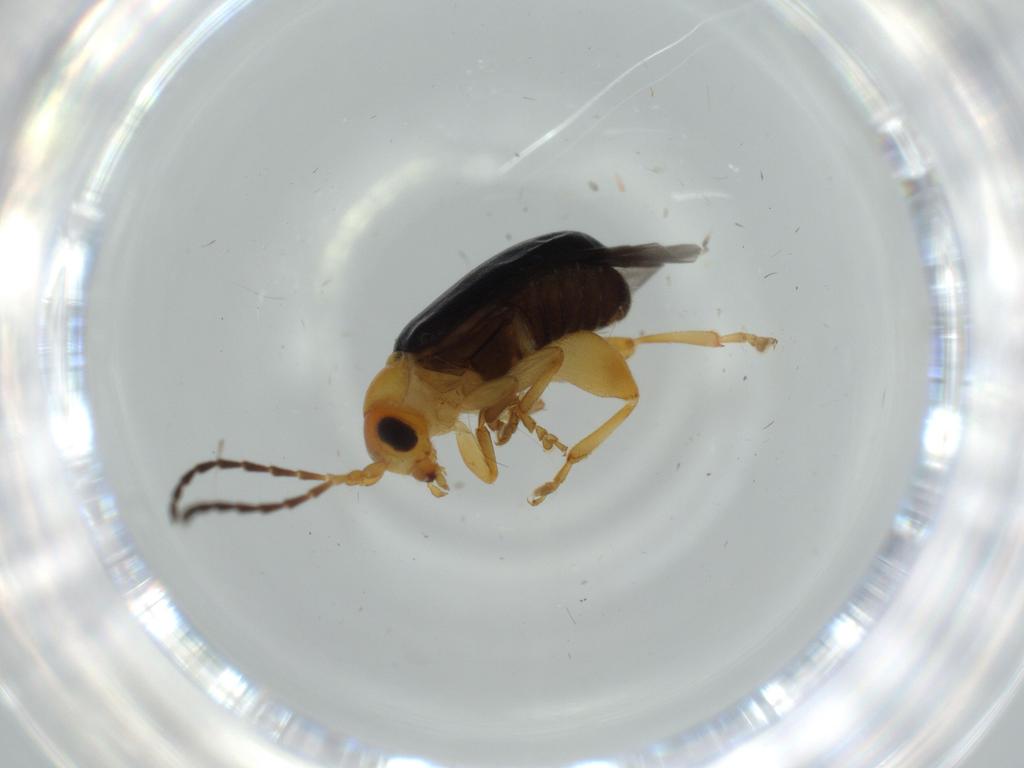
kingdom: Animalia
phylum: Arthropoda
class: Insecta
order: Coleoptera
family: Chrysomelidae
